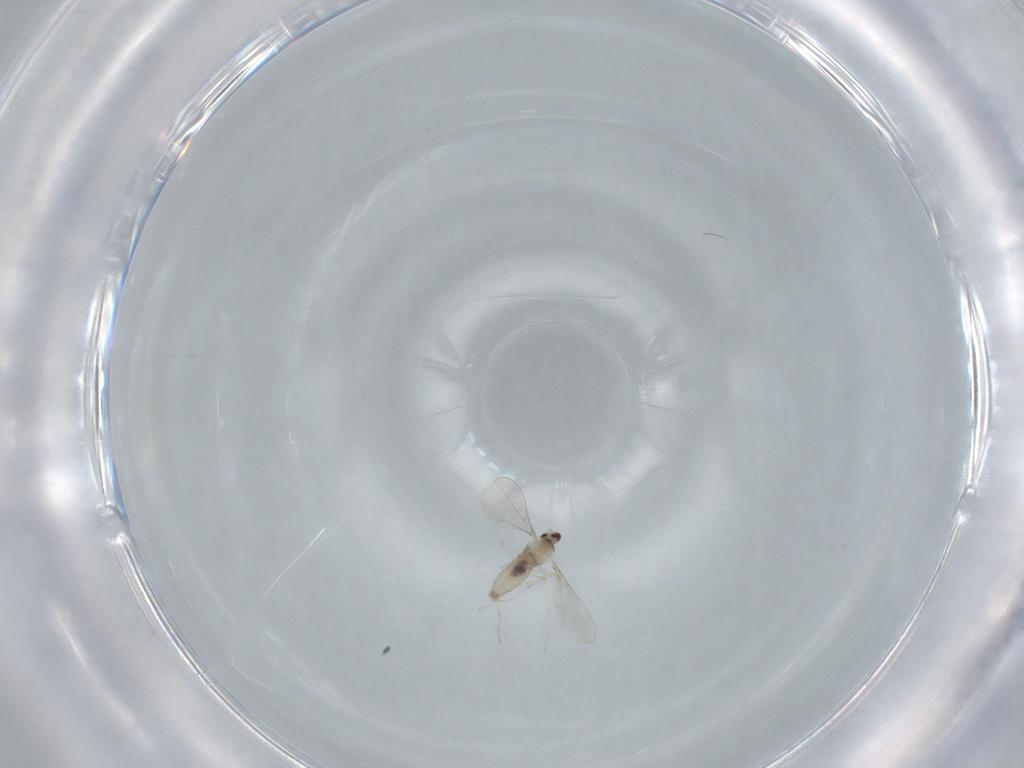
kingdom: Animalia
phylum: Arthropoda
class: Insecta
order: Diptera
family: Cecidomyiidae
